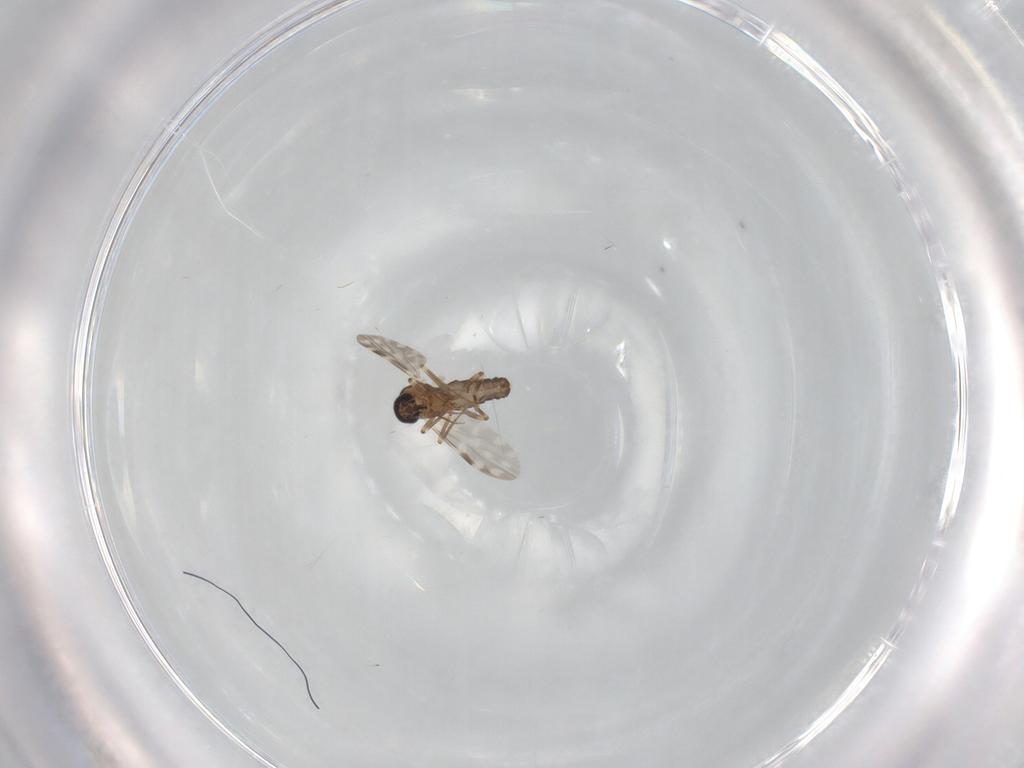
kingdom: Animalia
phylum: Arthropoda
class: Insecta
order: Diptera
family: Ceratopogonidae
